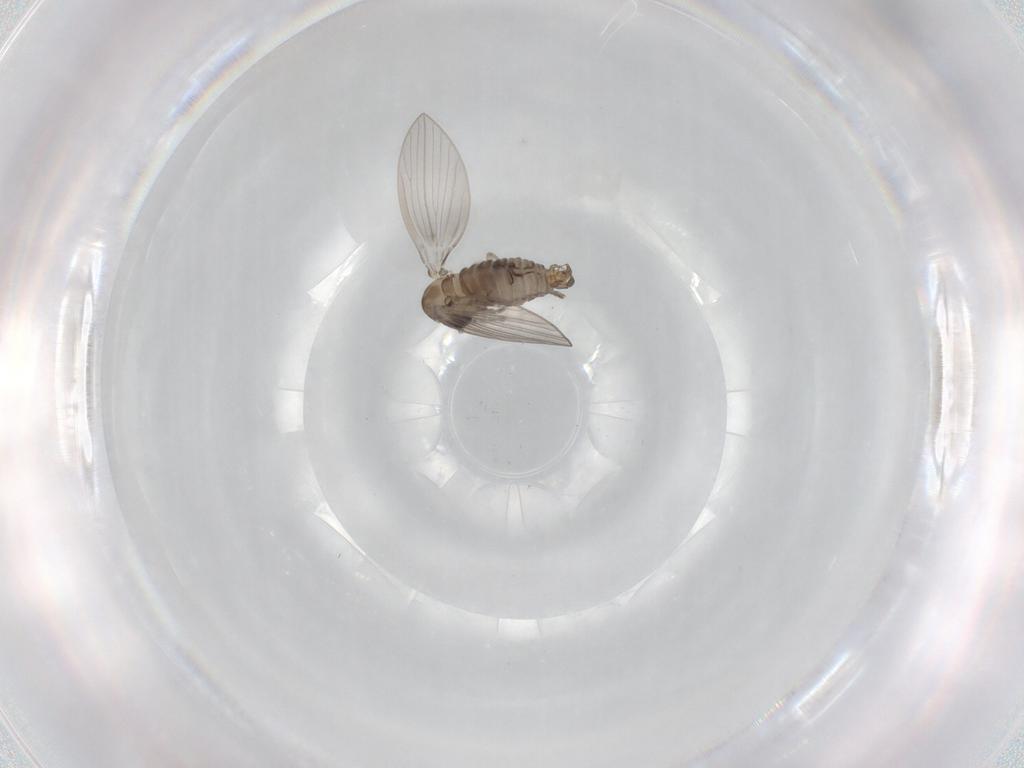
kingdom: Animalia
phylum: Arthropoda
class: Insecta
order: Diptera
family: Psychodidae
